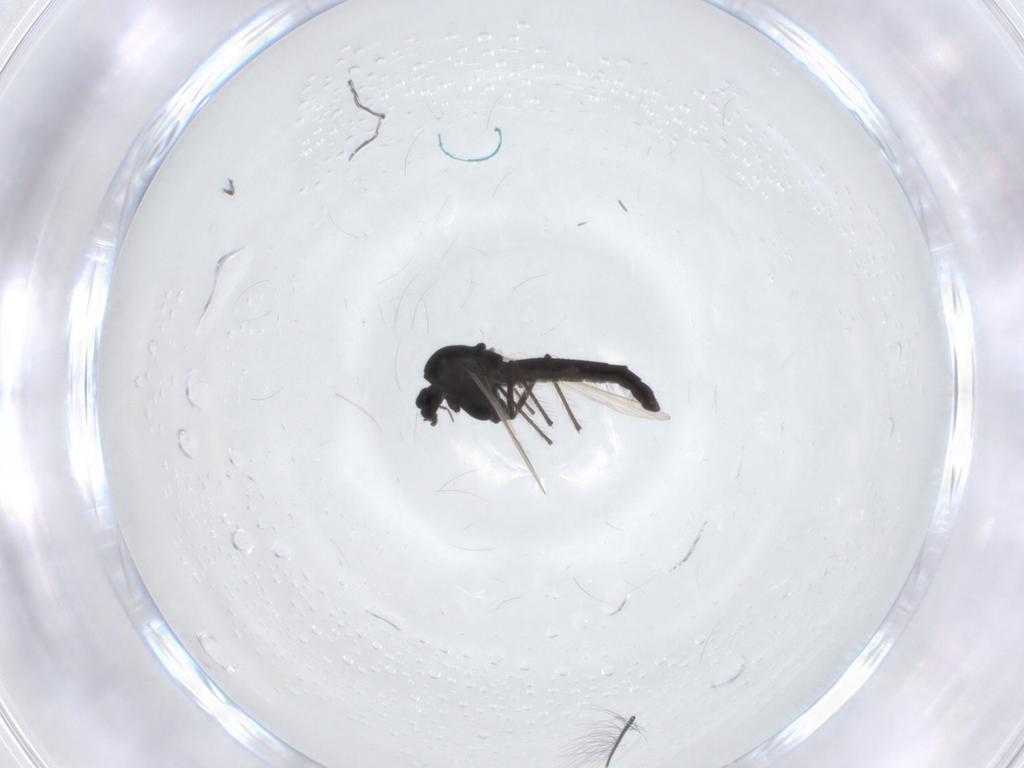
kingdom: Animalia
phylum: Arthropoda
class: Insecta
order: Diptera
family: Chironomidae
